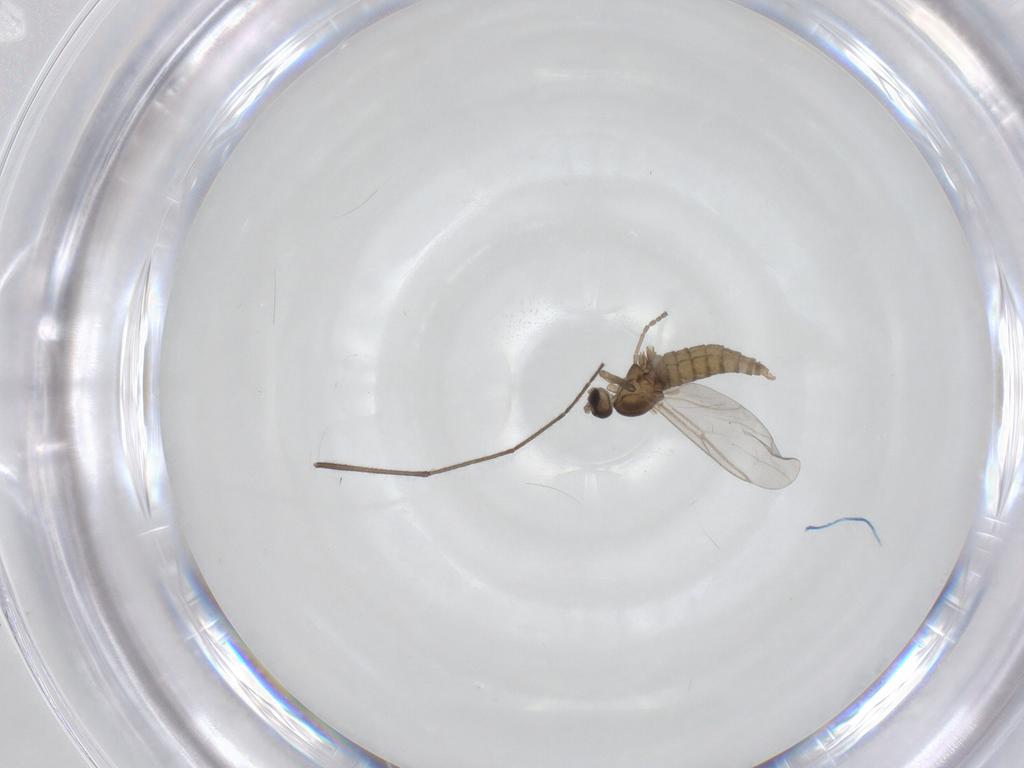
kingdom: Animalia
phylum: Arthropoda
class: Insecta
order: Diptera
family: Cecidomyiidae
